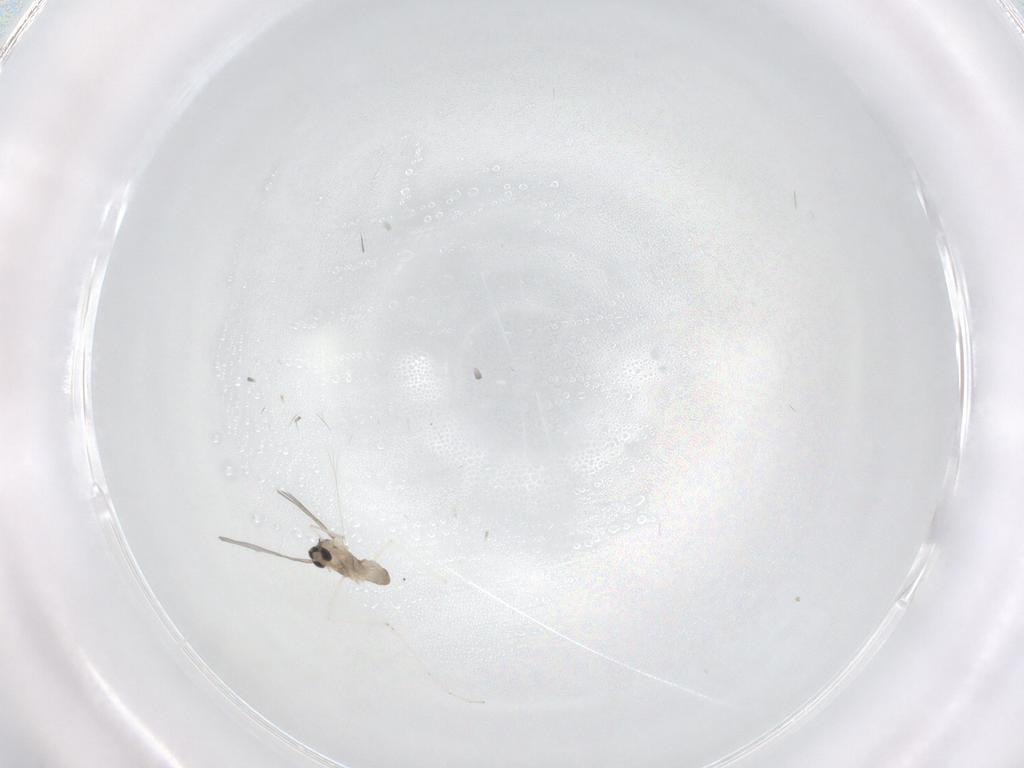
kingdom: Animalia
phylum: Arthropoda
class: Insecta
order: Diptera
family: Cecidomyiidae
